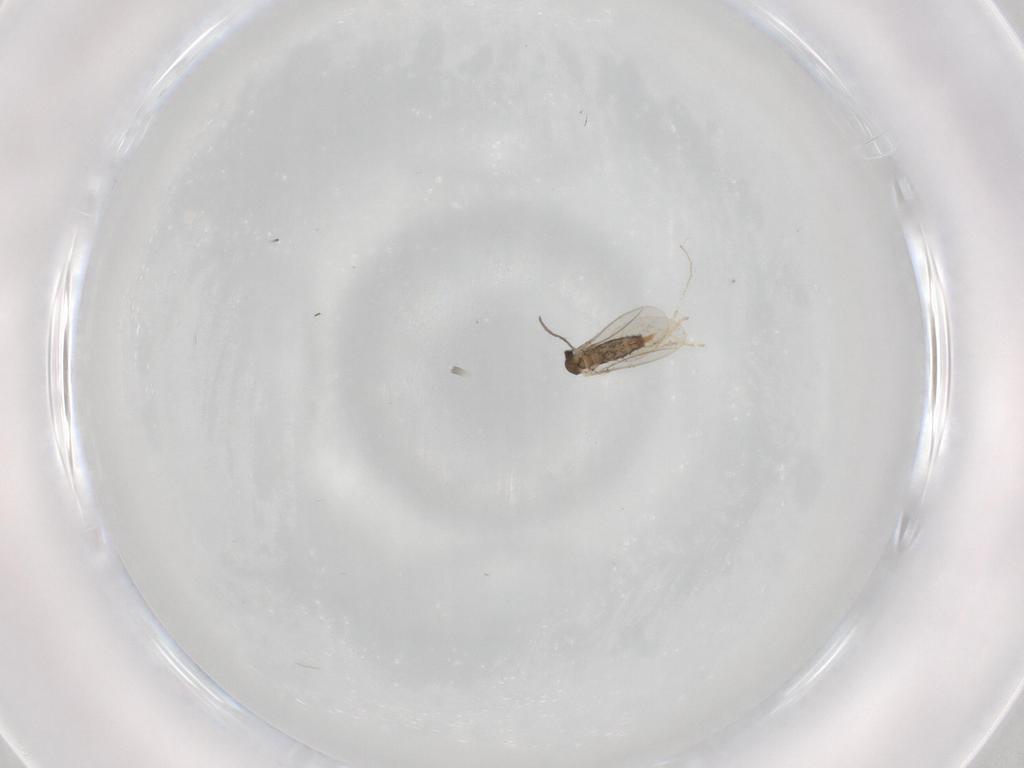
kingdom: Animalia
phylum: Arthropoda
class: Insecta
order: Diptera
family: Cecidomyiidae
